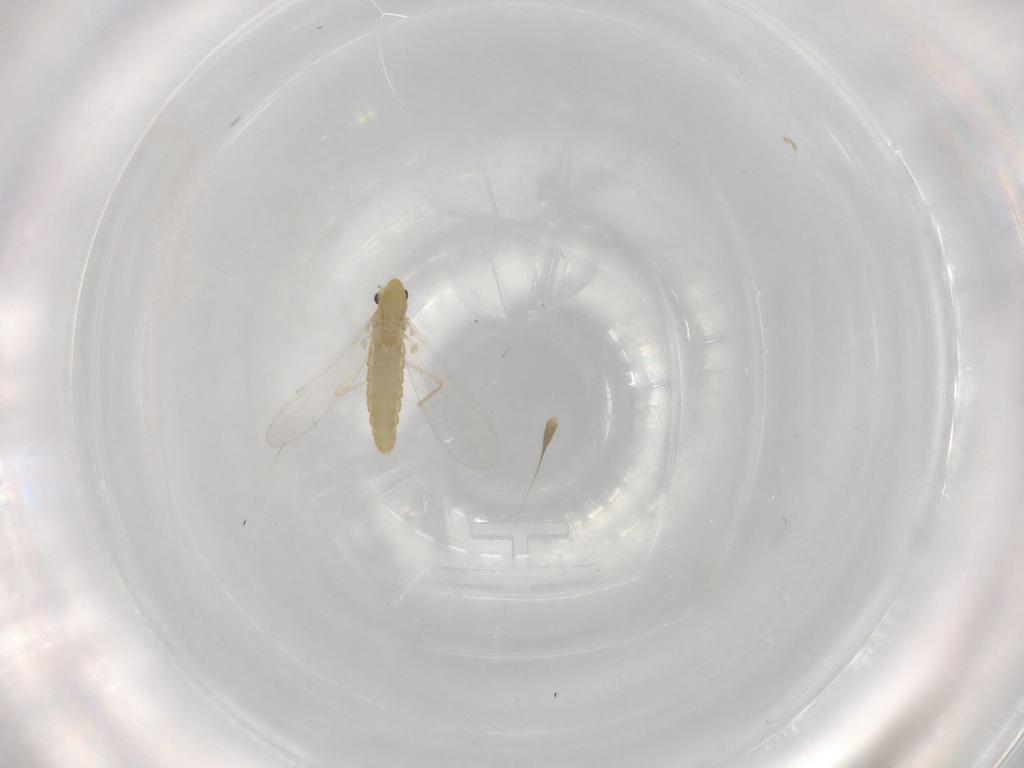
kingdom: Animalia
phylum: Arthropoda
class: Insecta
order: Diptera
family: Chironomidae
